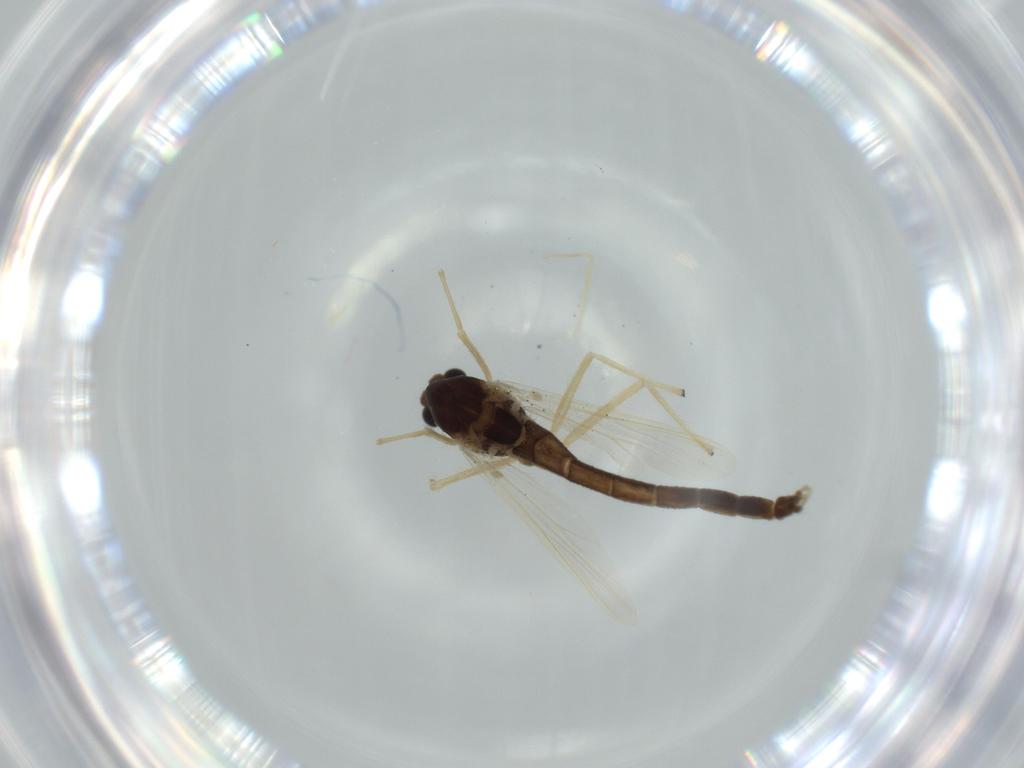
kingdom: Animalia
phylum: Arthropoda
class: Insecta
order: Diptera
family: Chironomidae
